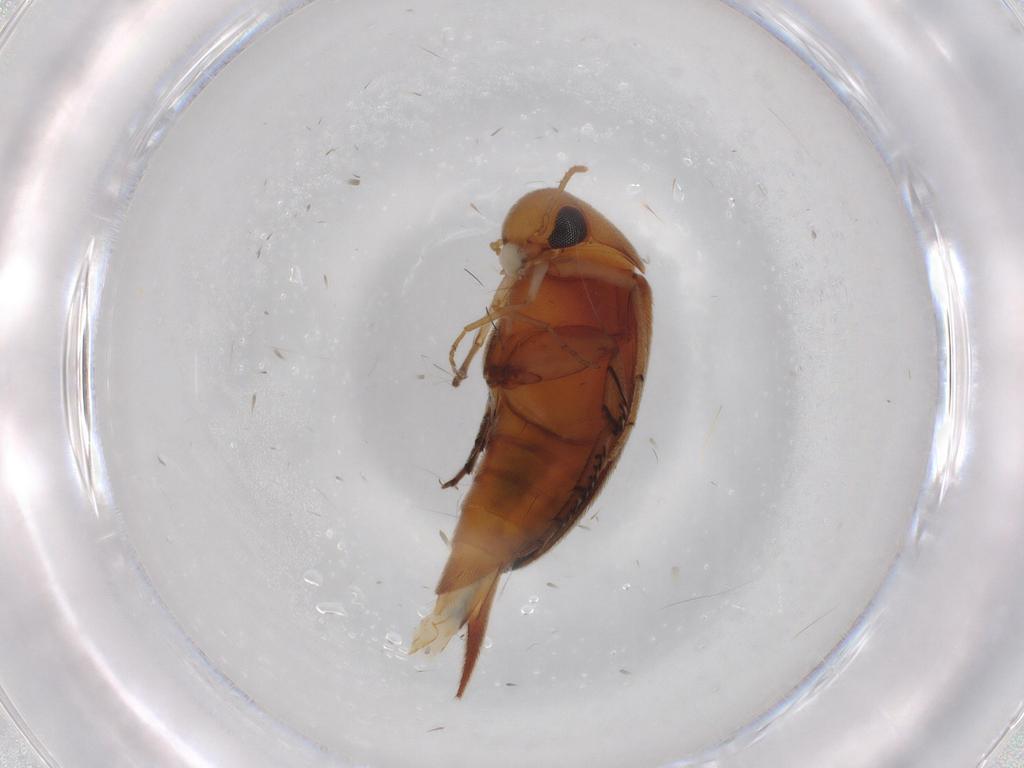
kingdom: Animalia
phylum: Arthropoda
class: Insecta
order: Coleoptera
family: Mordellidae
